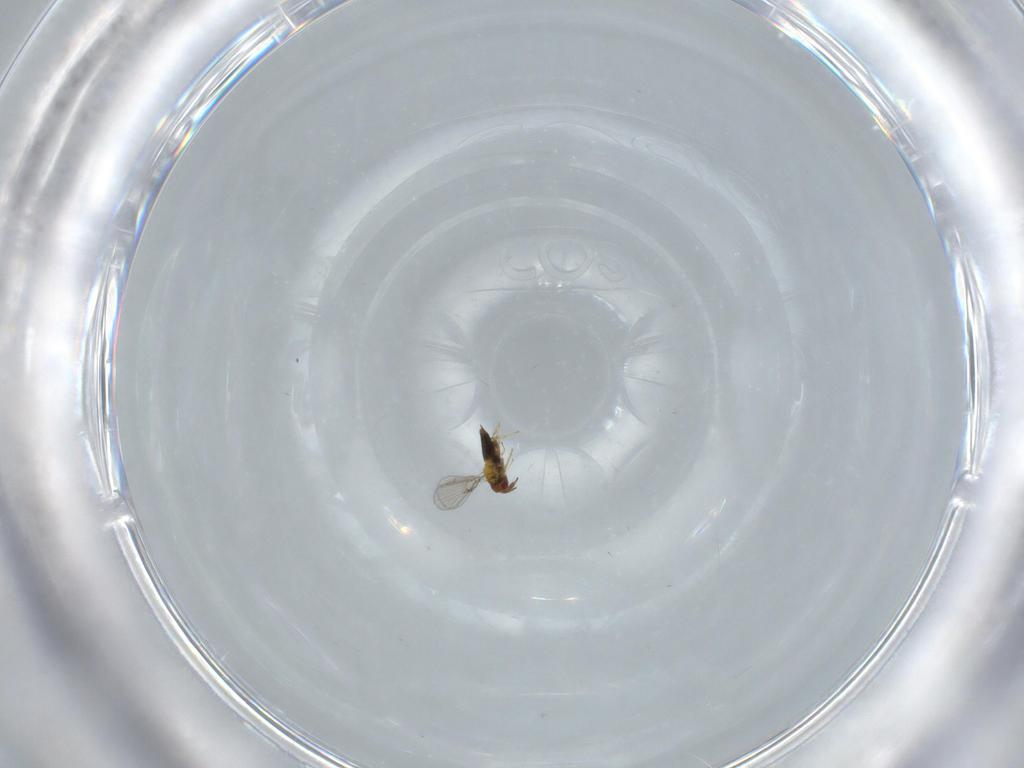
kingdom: Animalia
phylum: Arthropoda
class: Insecta
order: Hymenoptera
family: Trichogrammatidae
